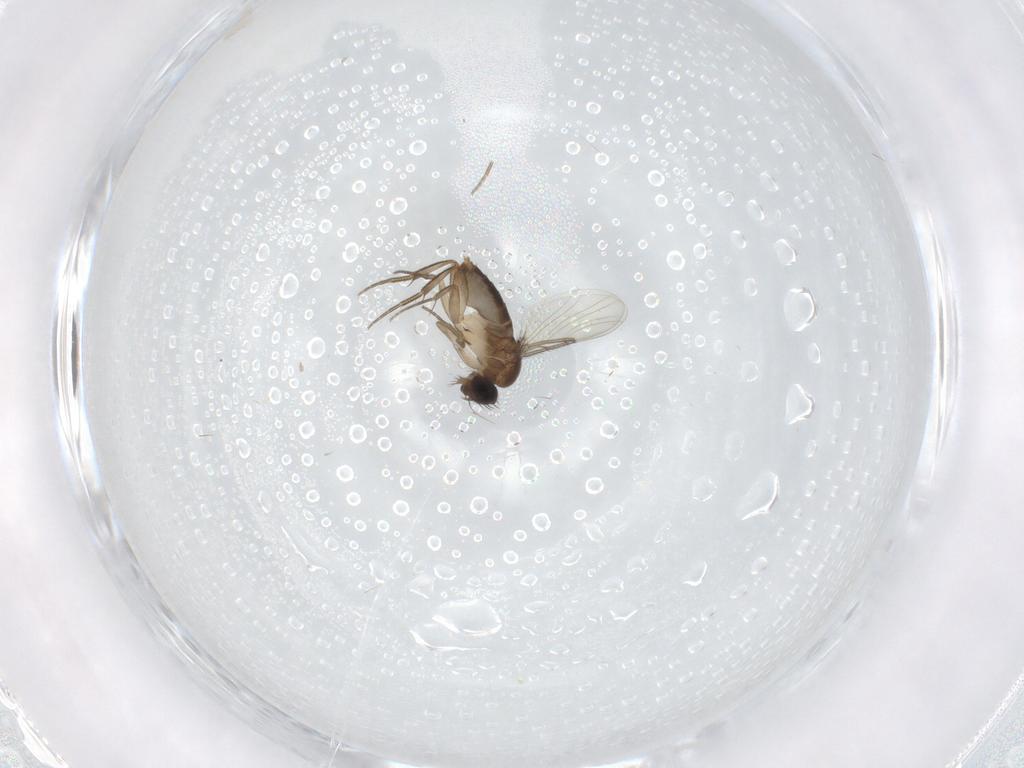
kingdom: Animalia
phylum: Arthropoda
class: Insecta
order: Diptera
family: Phoridae
